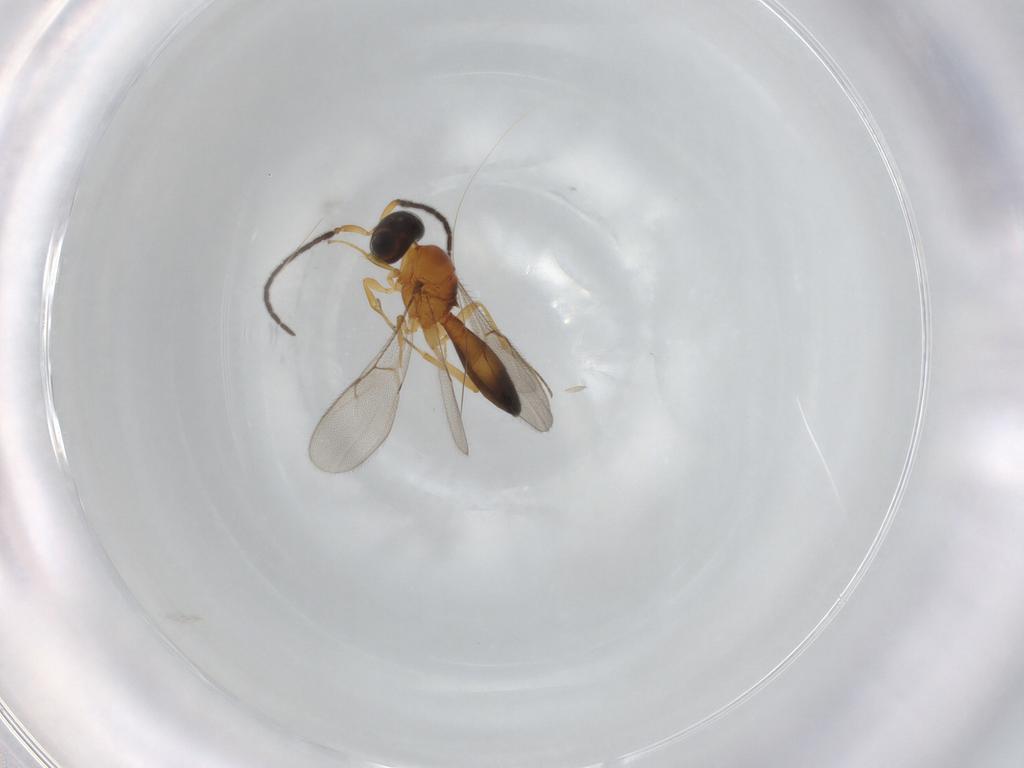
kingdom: Animalia
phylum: Arthropoda
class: Insecta
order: Hymenoptera
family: Scelionidae
